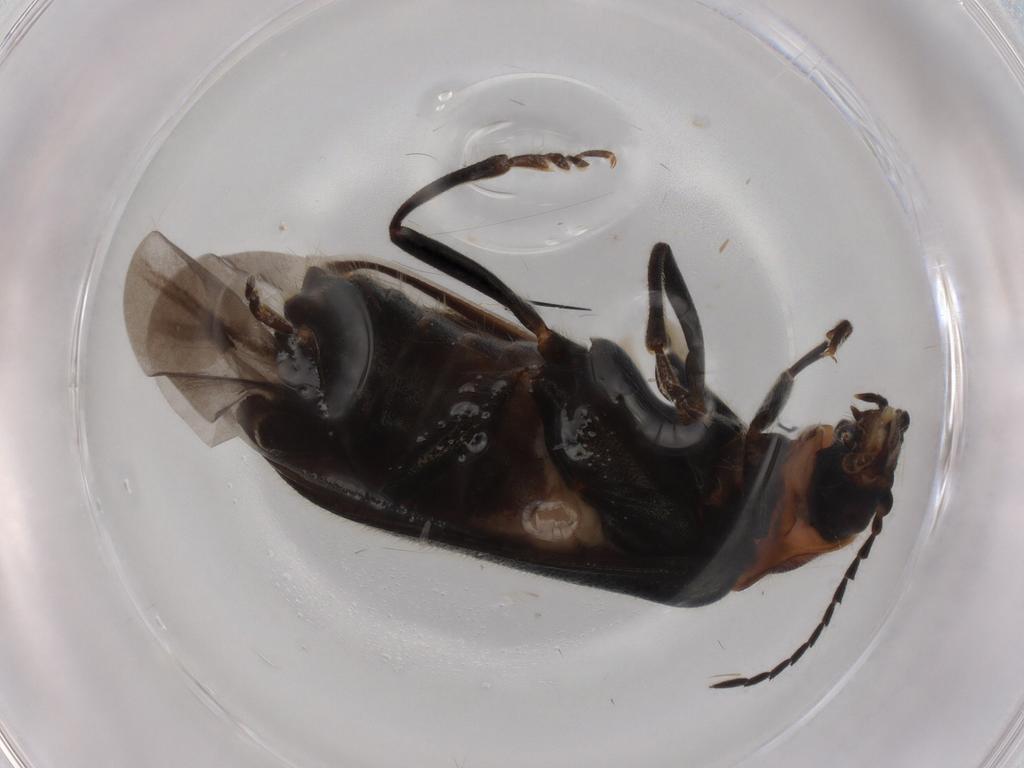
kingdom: Animalia
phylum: Arthropoda
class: Insecta
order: Coleoptera
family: Melyridae
